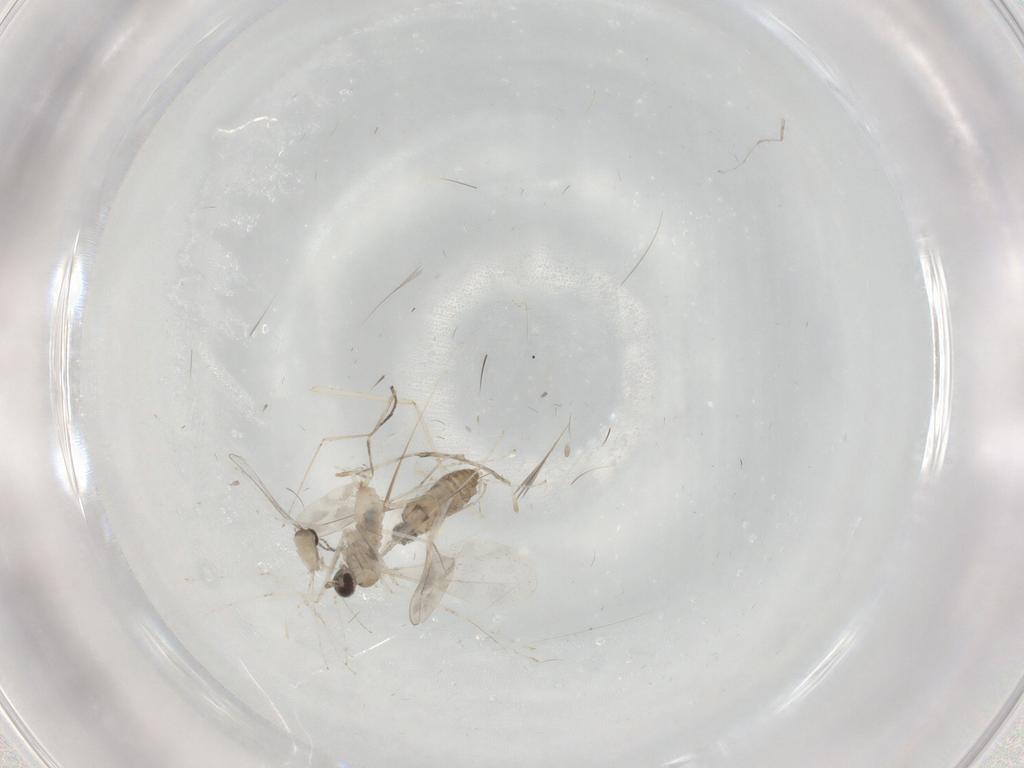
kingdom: Animalia
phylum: Arthropoda
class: Insecta
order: Diptera
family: Cecidomyiidae
